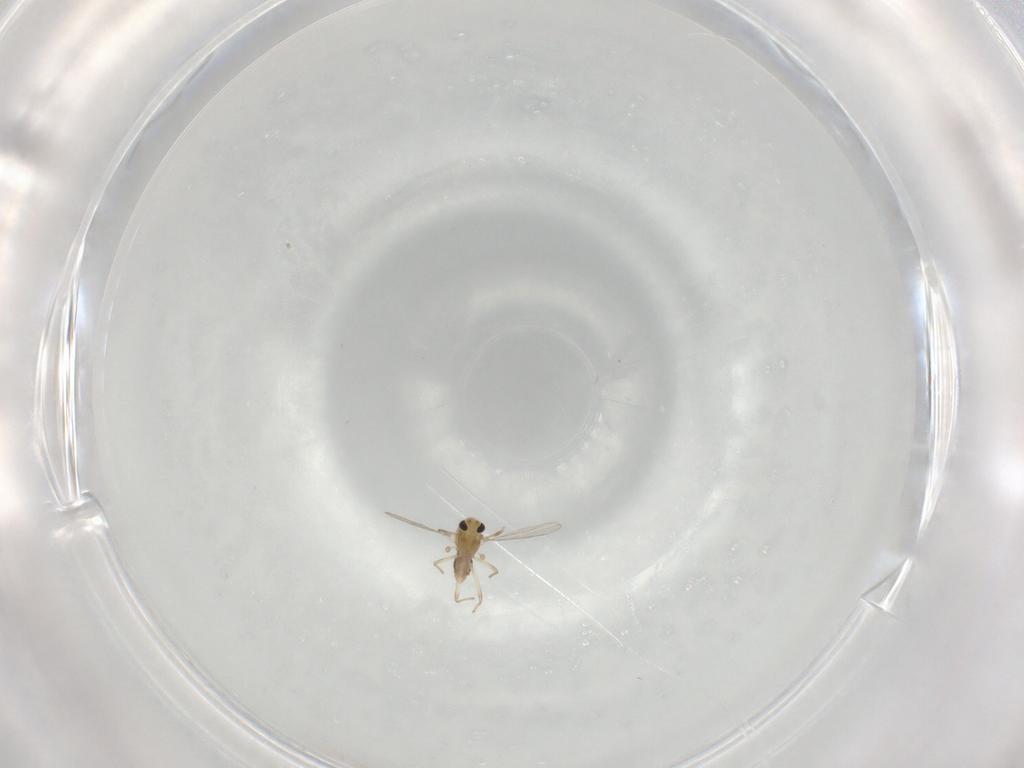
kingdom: Animalia
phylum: Arthropoda
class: Insecta
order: Diptera
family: Chironomidae
